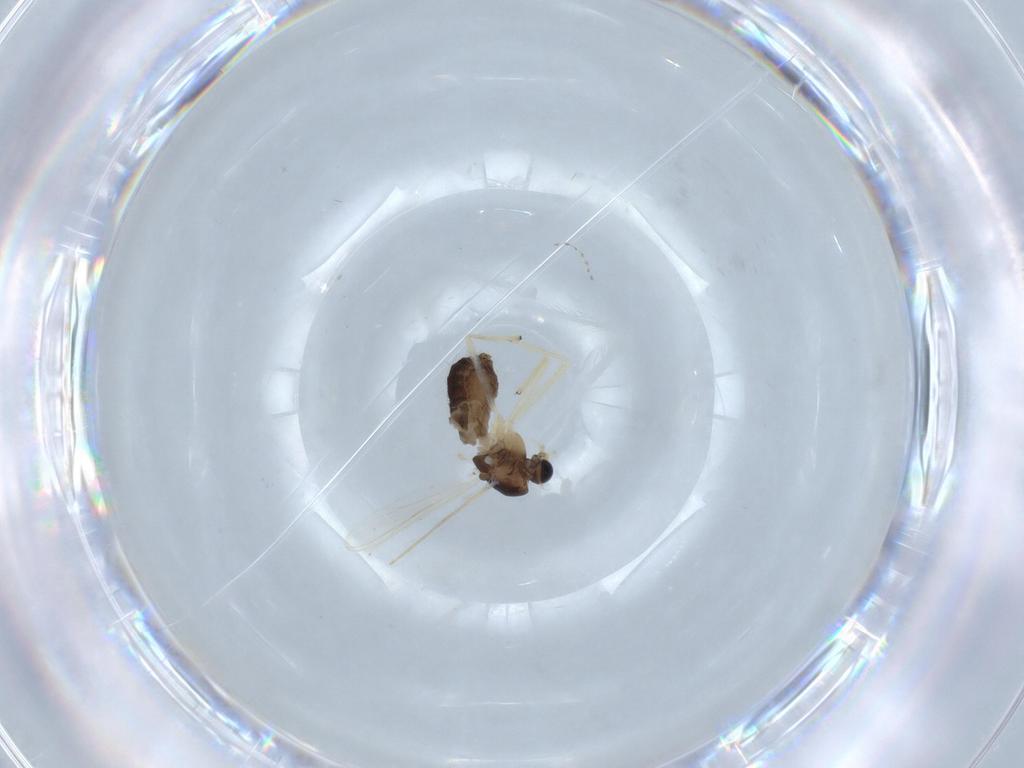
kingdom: Animalia
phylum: Arthropoda
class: Insecta
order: Diptera
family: Chironomidae
